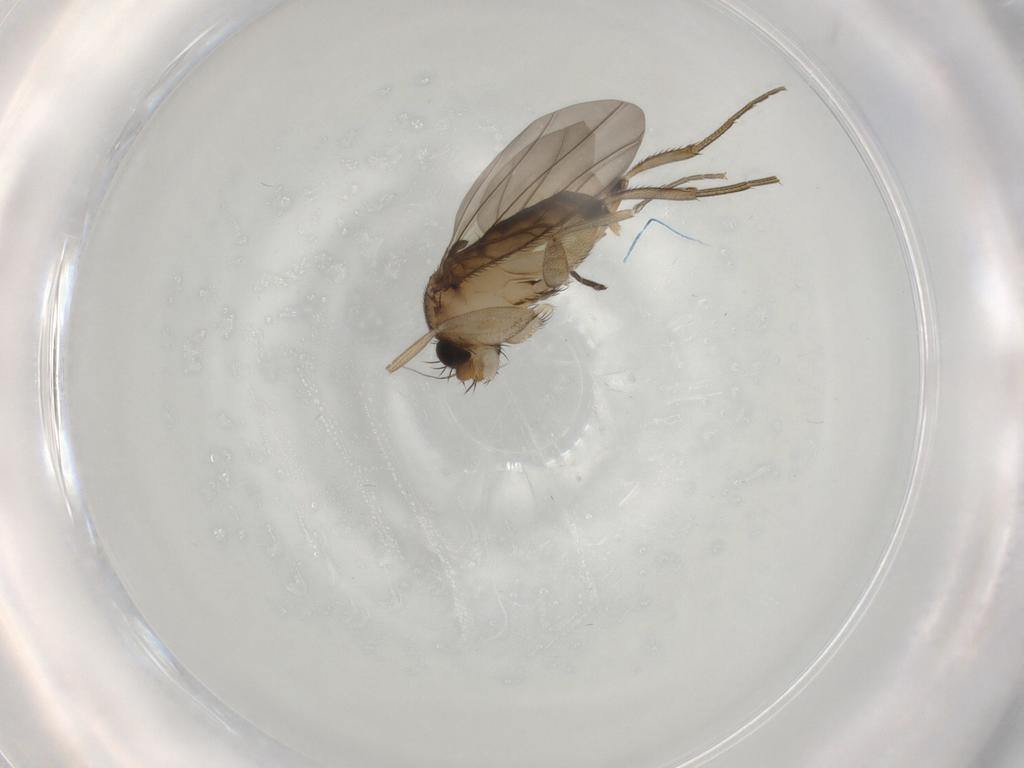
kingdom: Animalia
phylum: Arthropoda
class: Insecta
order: Diptera
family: Phoridae
